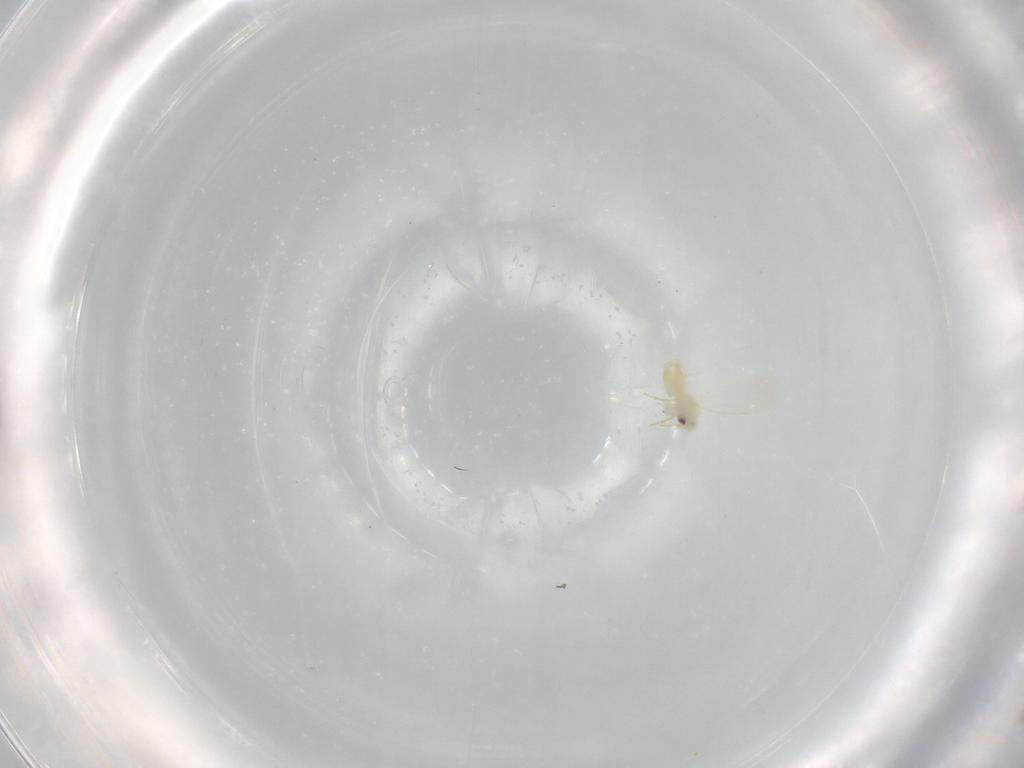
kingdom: Animalia
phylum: Arthropoda
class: Insecta
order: Hemiptera
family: Aleyrodidae
